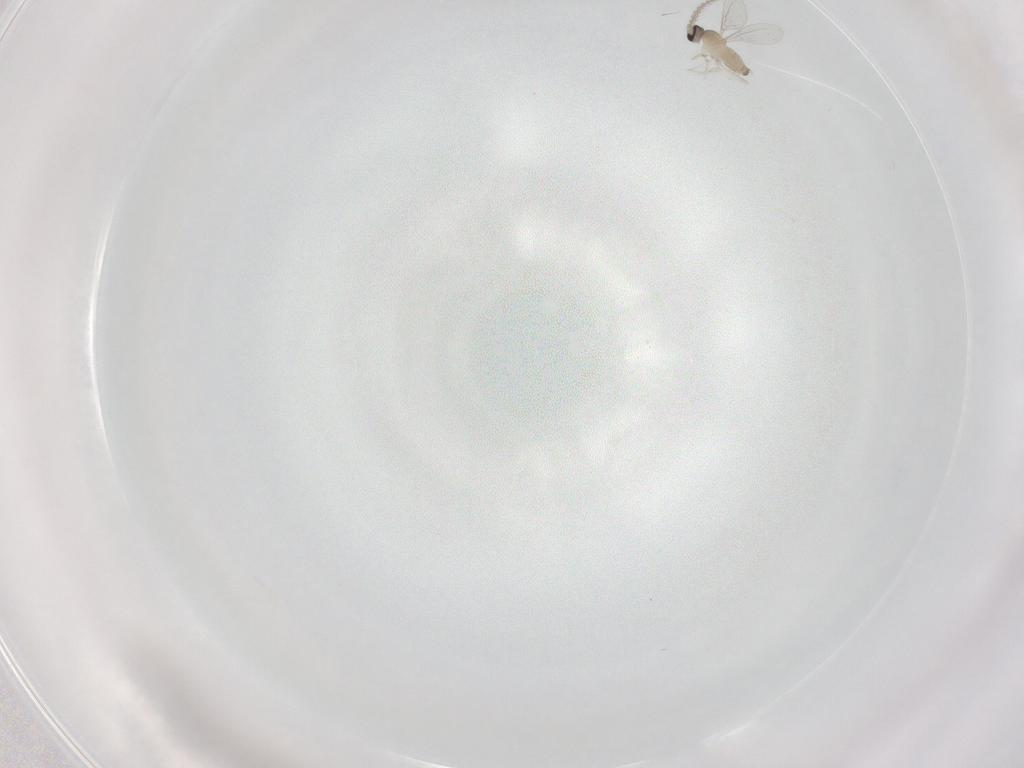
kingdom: Animalia
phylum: Arthropoda
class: Insecta
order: Diptera
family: Cecidomyiidae
